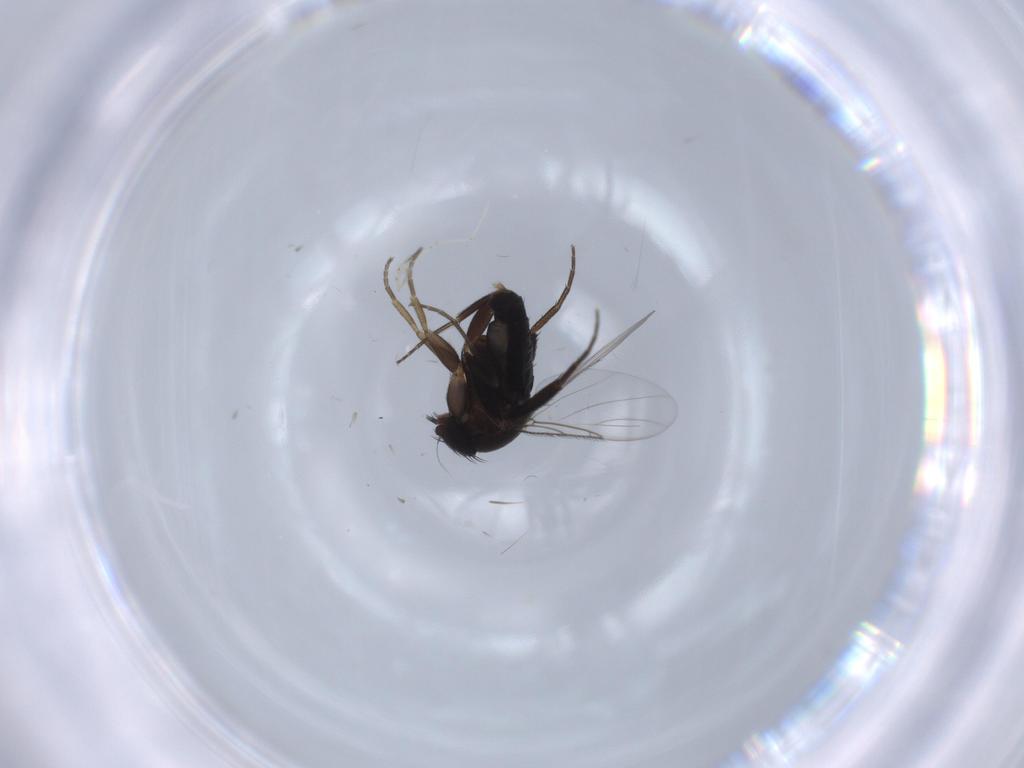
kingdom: Animalia
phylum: Arthropoda
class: Insecta
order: Diptera
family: Phoridae
